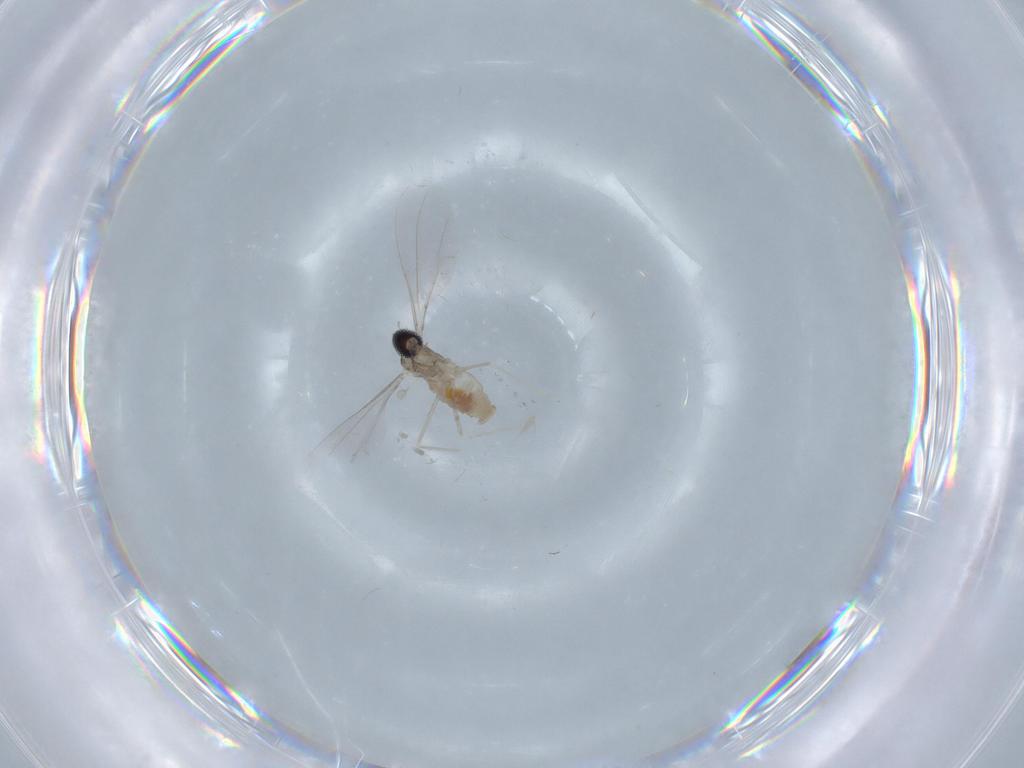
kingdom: Animalia
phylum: Arthropoda
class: Insecta
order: Diptera
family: Cecidomyiidae
